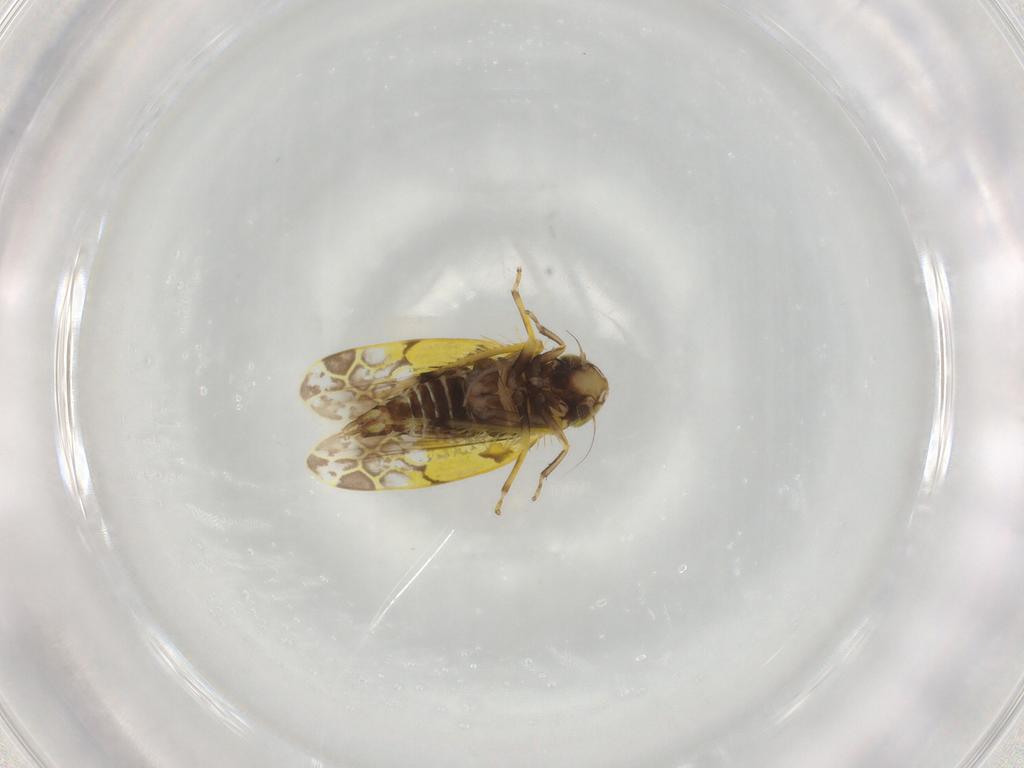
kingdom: Animalia
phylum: Arthropoda
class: Insecta
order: Hemiptera
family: Cicadellidae
